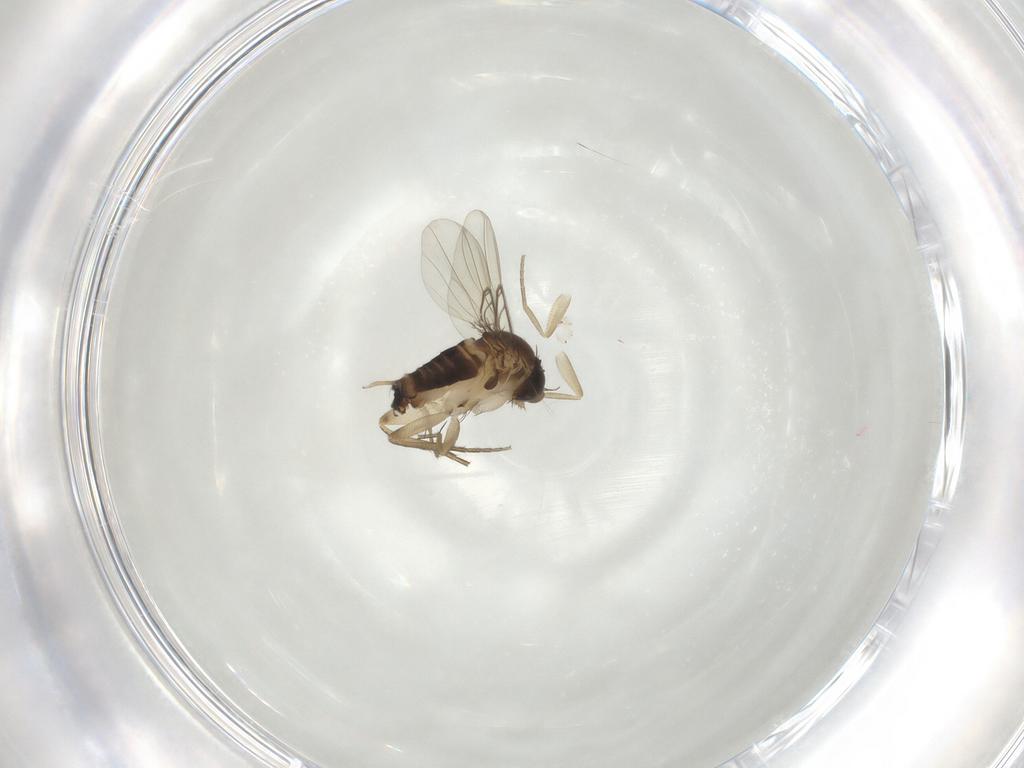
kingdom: Animalia
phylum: Arthropoda
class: Insecta
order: Diptera
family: Phoridae
